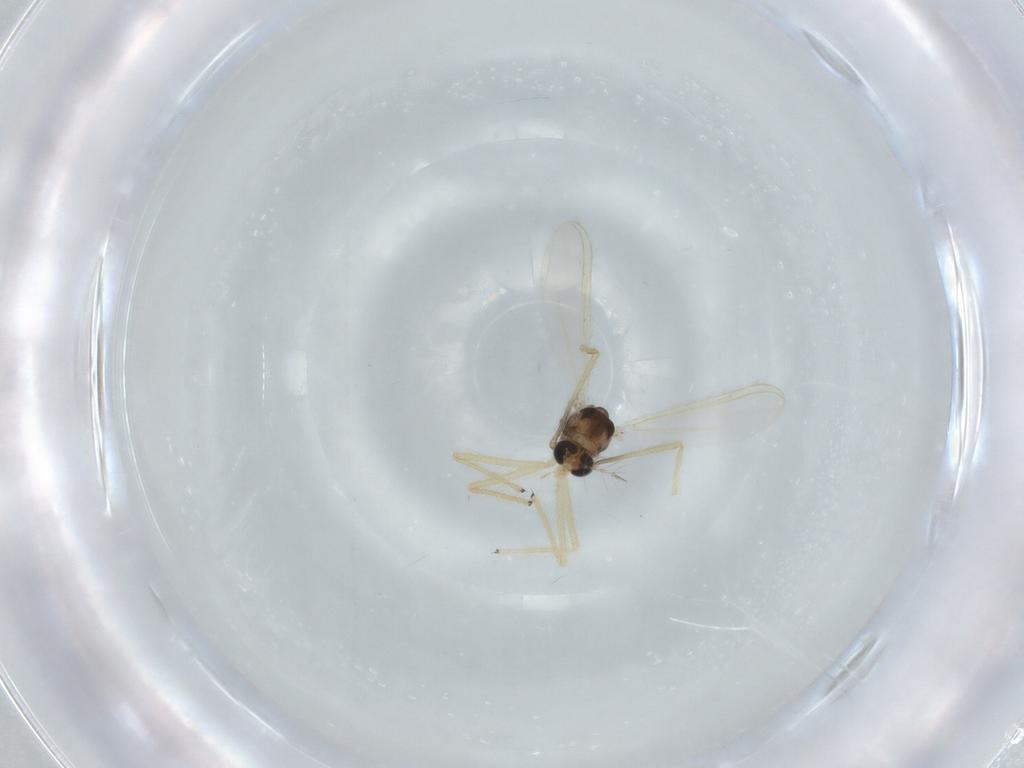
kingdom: Animalia
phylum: Arthropoda
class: Insecta
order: Diptera
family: Chironomidae
